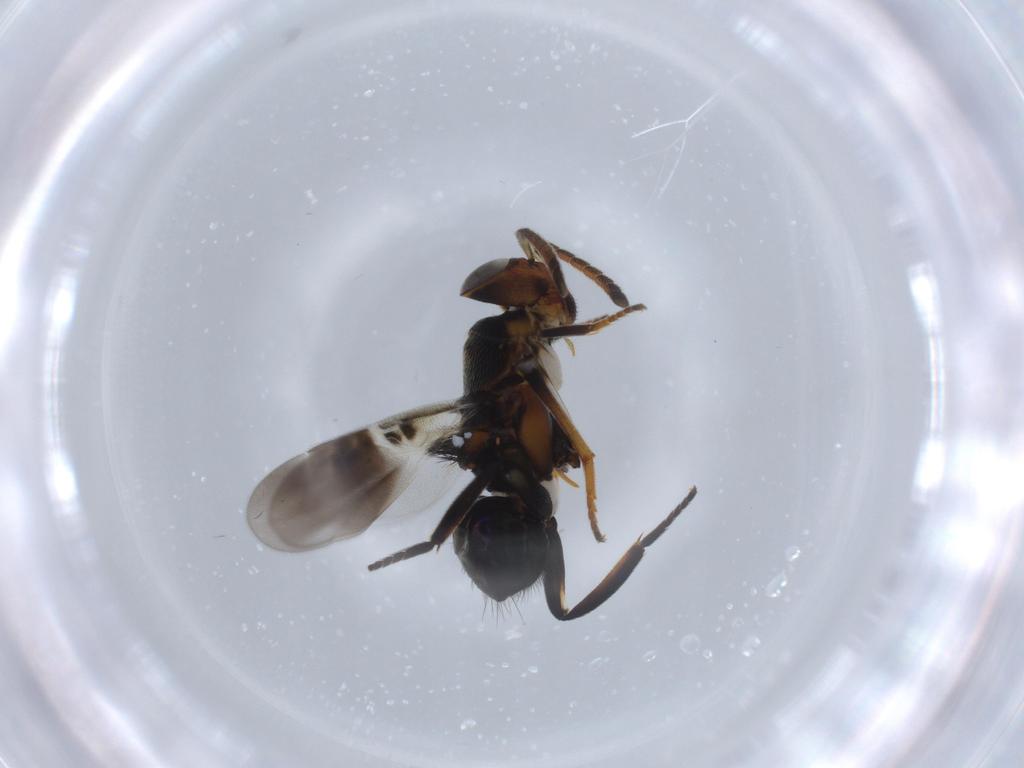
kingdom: Animalia
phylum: Arthropoda
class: Insecta
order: Hymenoptera
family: Encyrtidae
